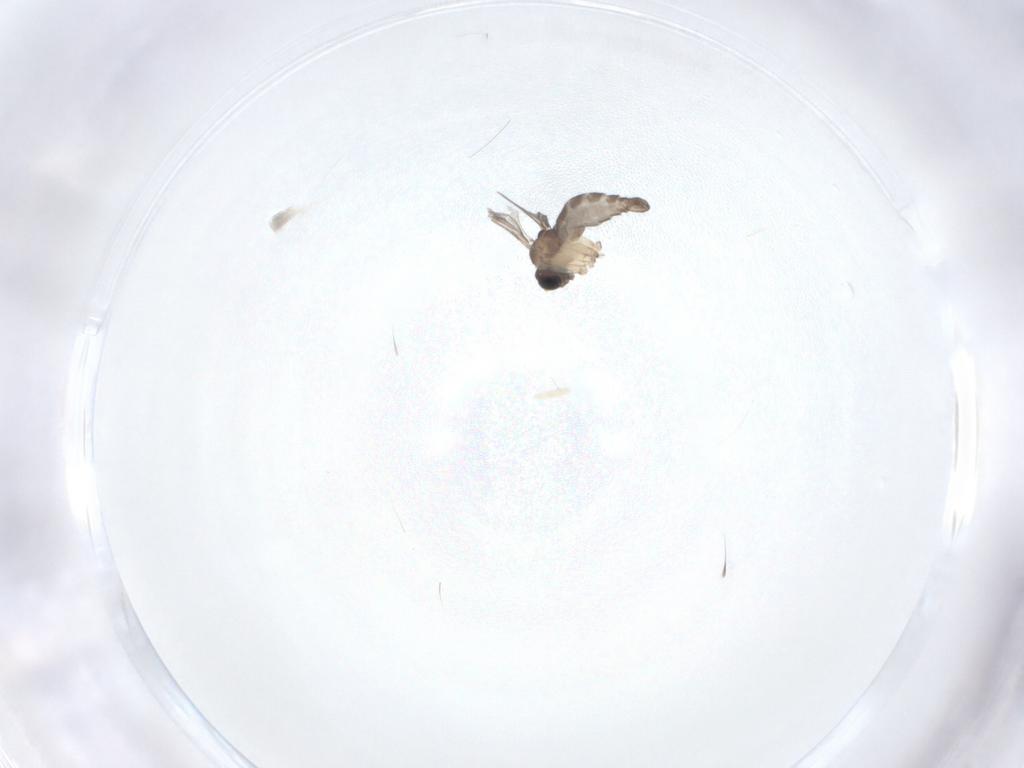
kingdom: Animalia
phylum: Arthropoda
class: Insecta
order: Diptera
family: Sciaridae
